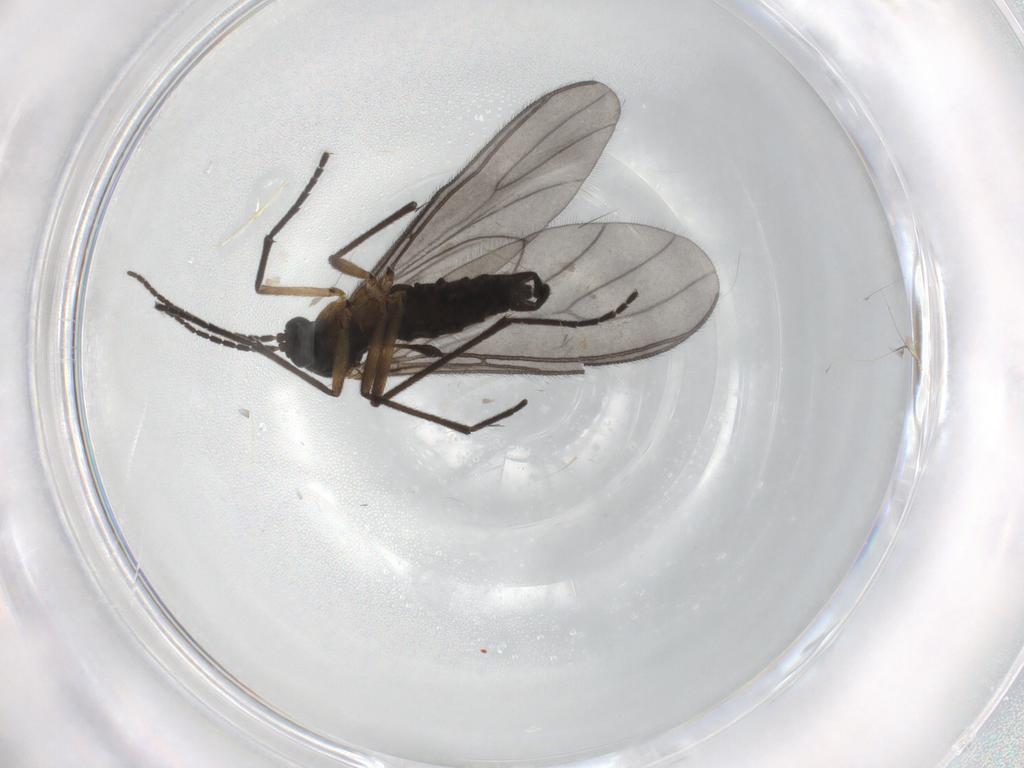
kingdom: Animalia
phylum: Arthropoda
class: Insecta
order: Diptera
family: Sciaridae
